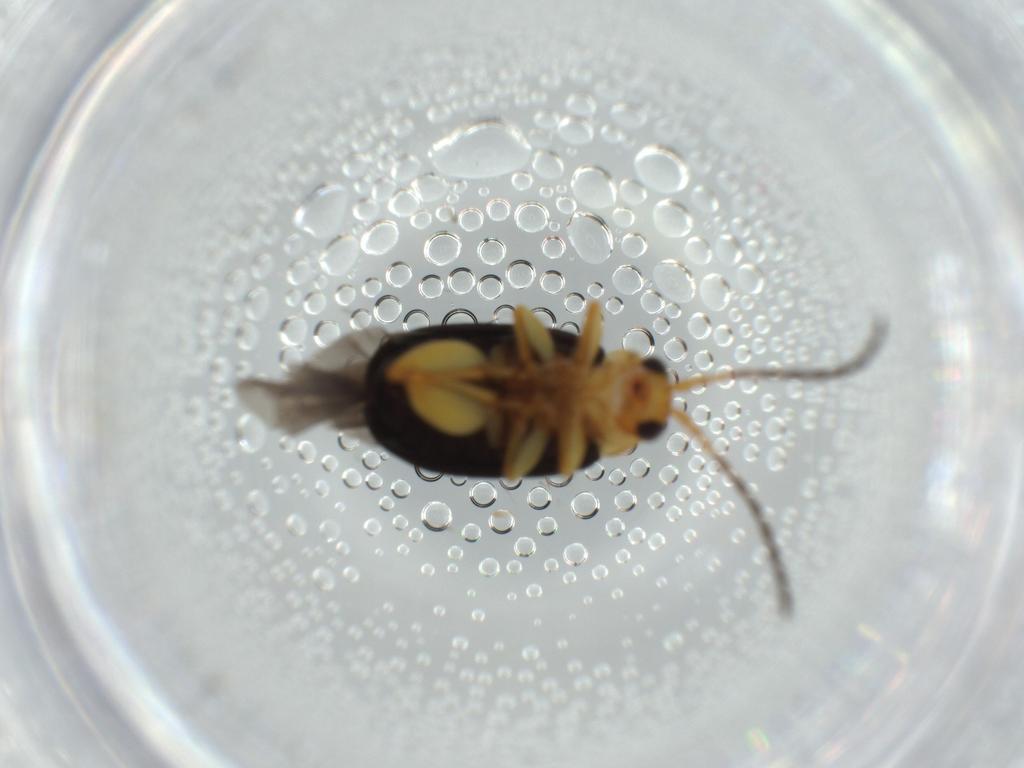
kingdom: Animalia
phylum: Arthropoda
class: Insecta
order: Coleoptera
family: Chrysomelidae
